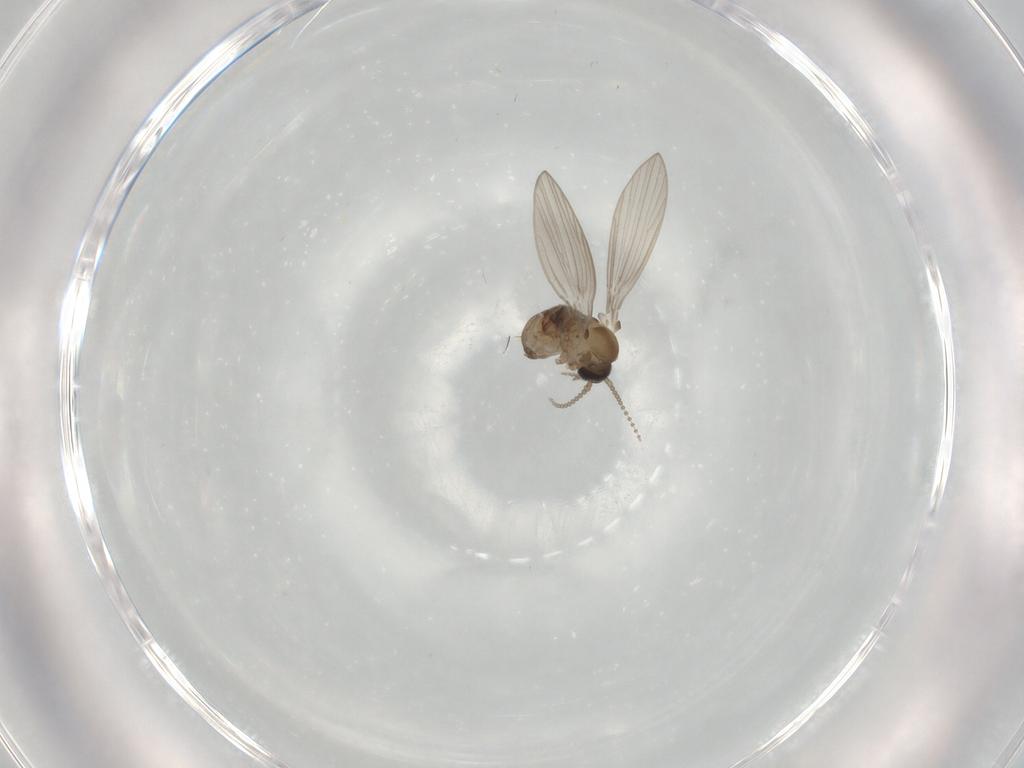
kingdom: Animalia
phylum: Arthropoda
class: Insecta
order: Diptera
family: Psychodidae
